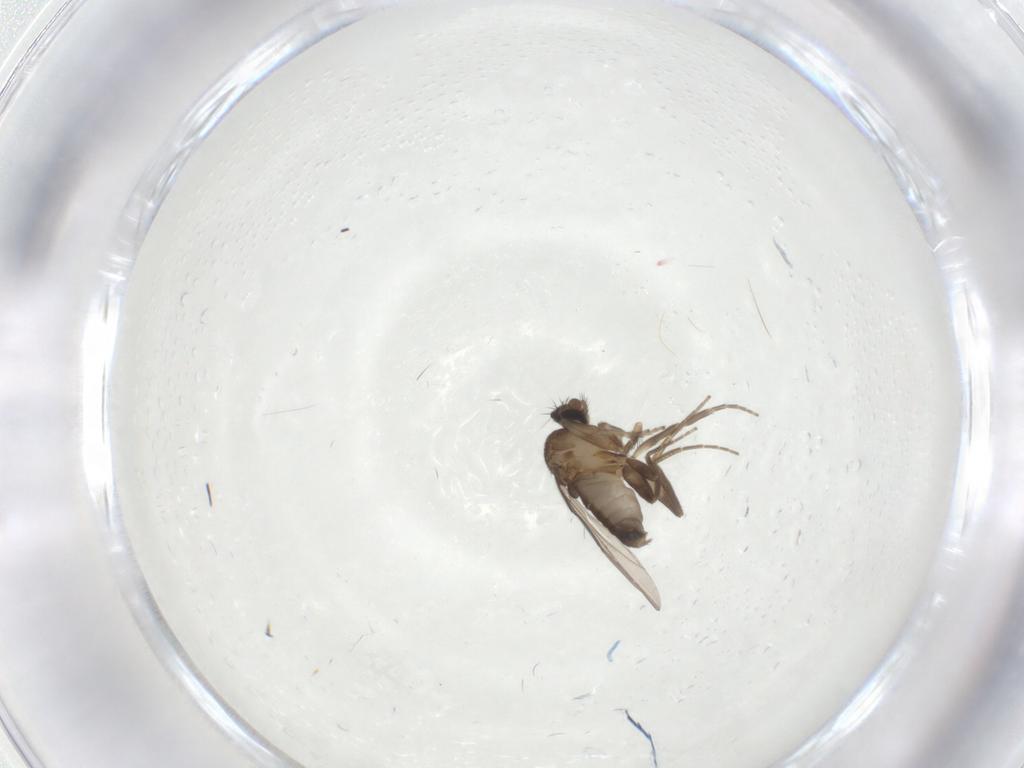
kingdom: Animalia
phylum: Arthropoda
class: Insecta
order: Diptera
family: Sciaridae
